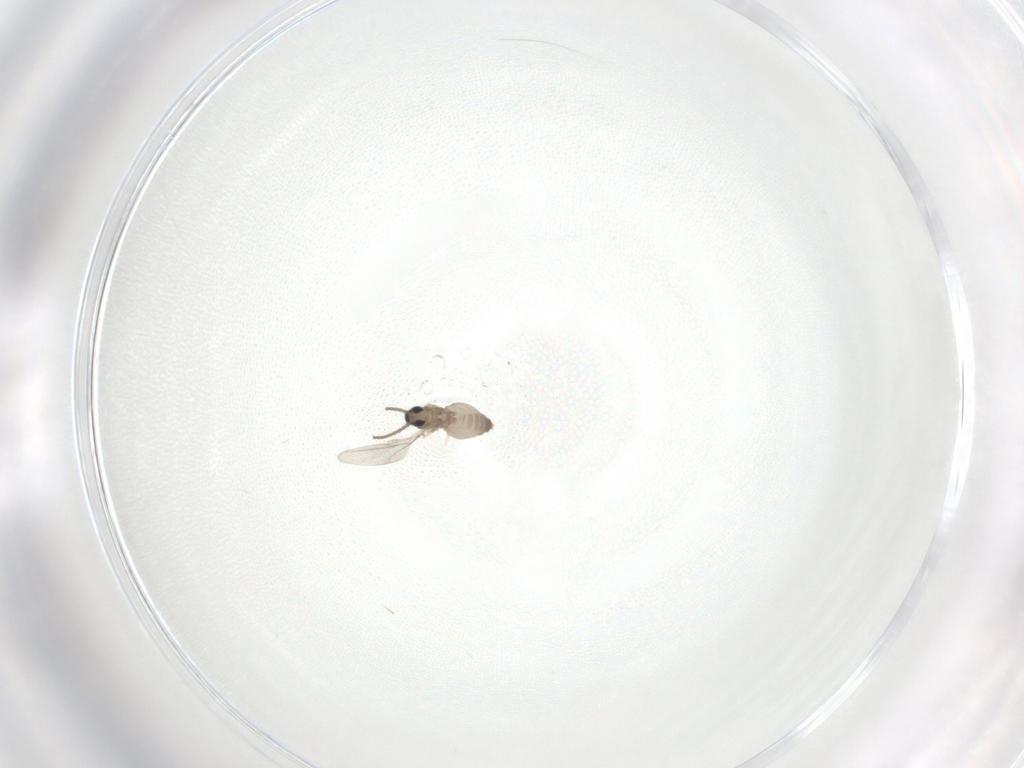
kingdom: Animalia
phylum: Arthropoda
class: Insecta
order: Diptera
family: Cecidomyiidae
